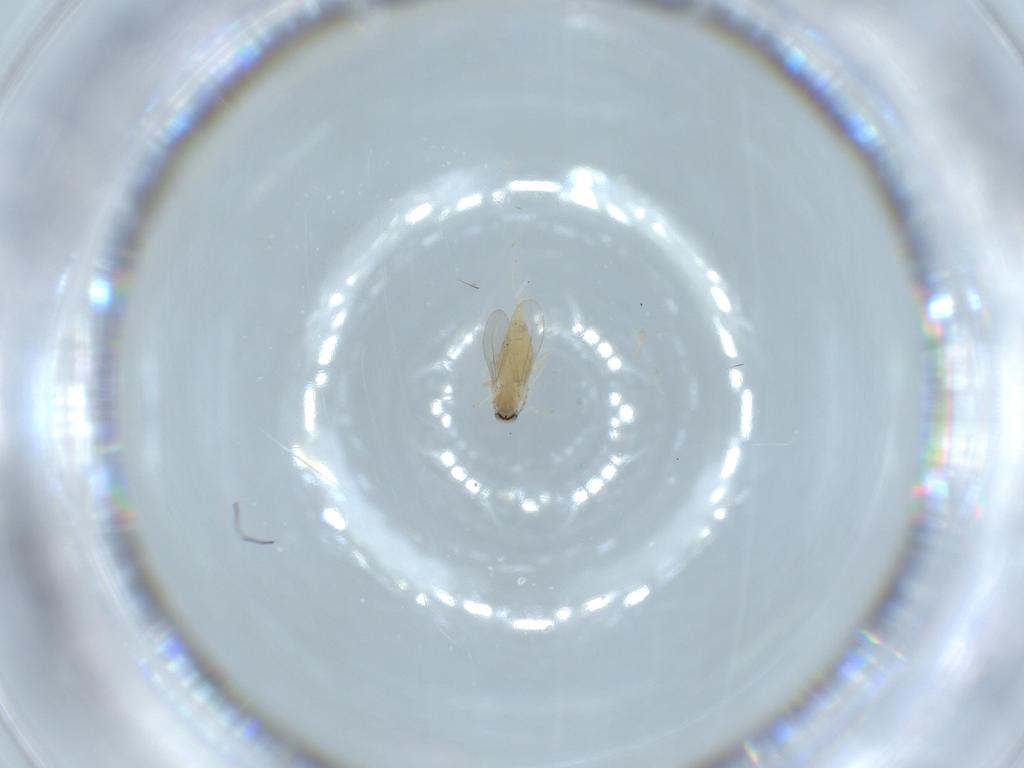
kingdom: Animalia
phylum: Arthropoda
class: Insecta
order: Diptera
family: Cecidomyiidae
